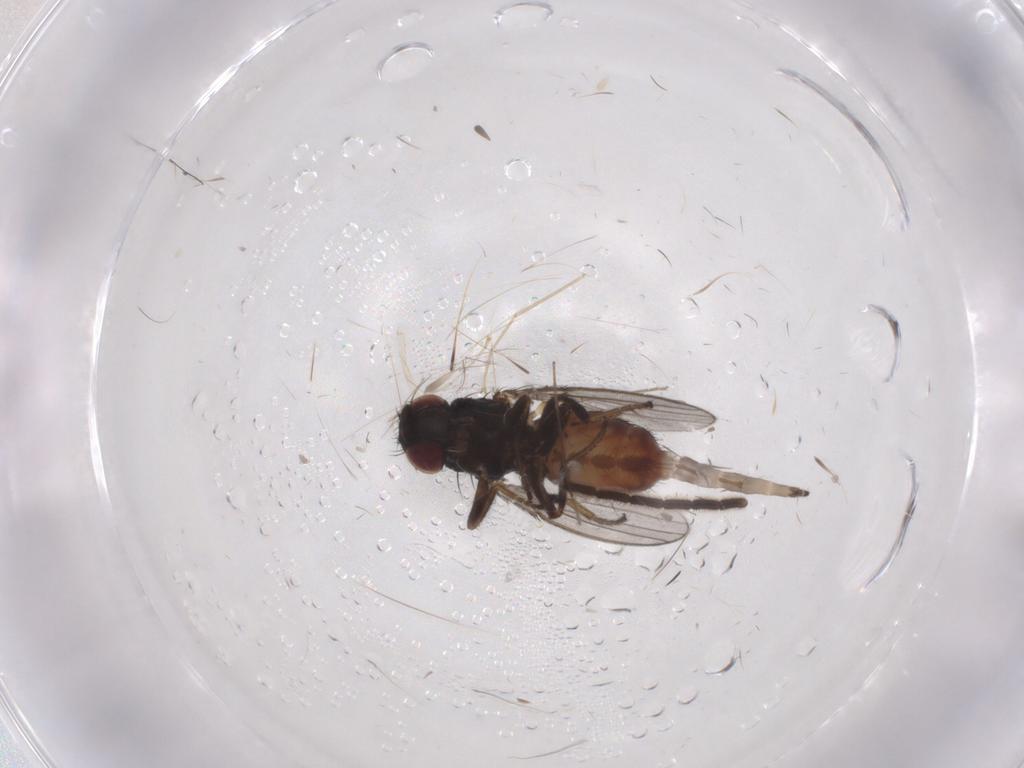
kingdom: Animalia
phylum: Arthropoda
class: Insecta
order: Diptera
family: Milichiidae
